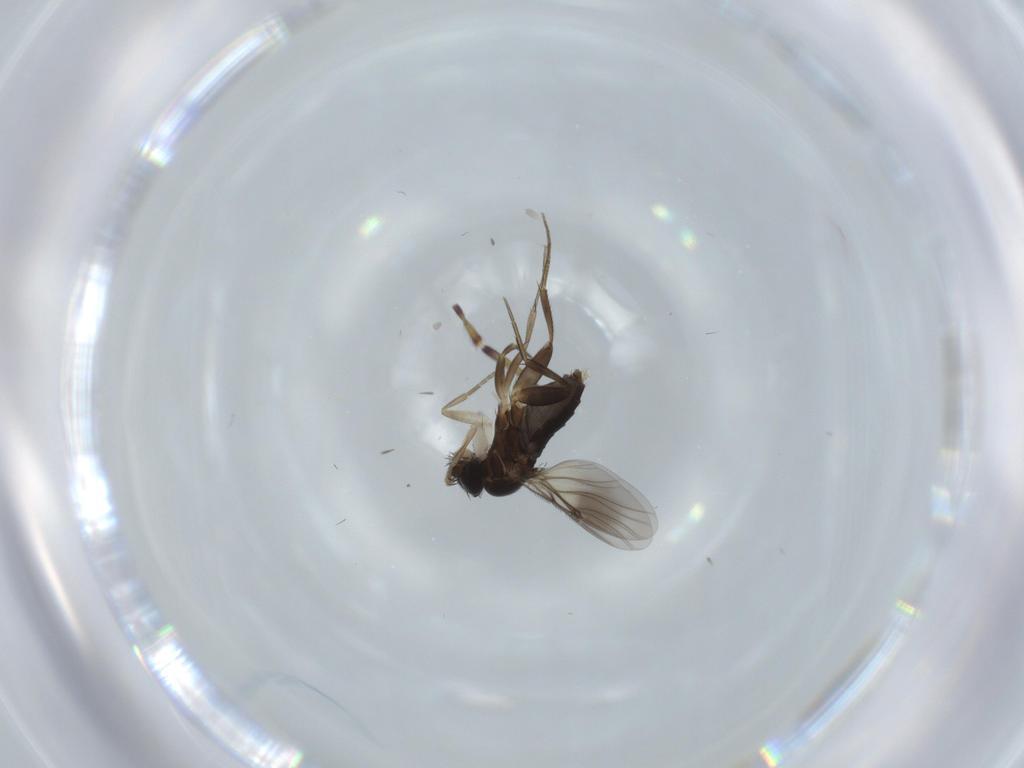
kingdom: Animalia
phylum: Arthropoda
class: Insecta
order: Diptera
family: Phoridae
